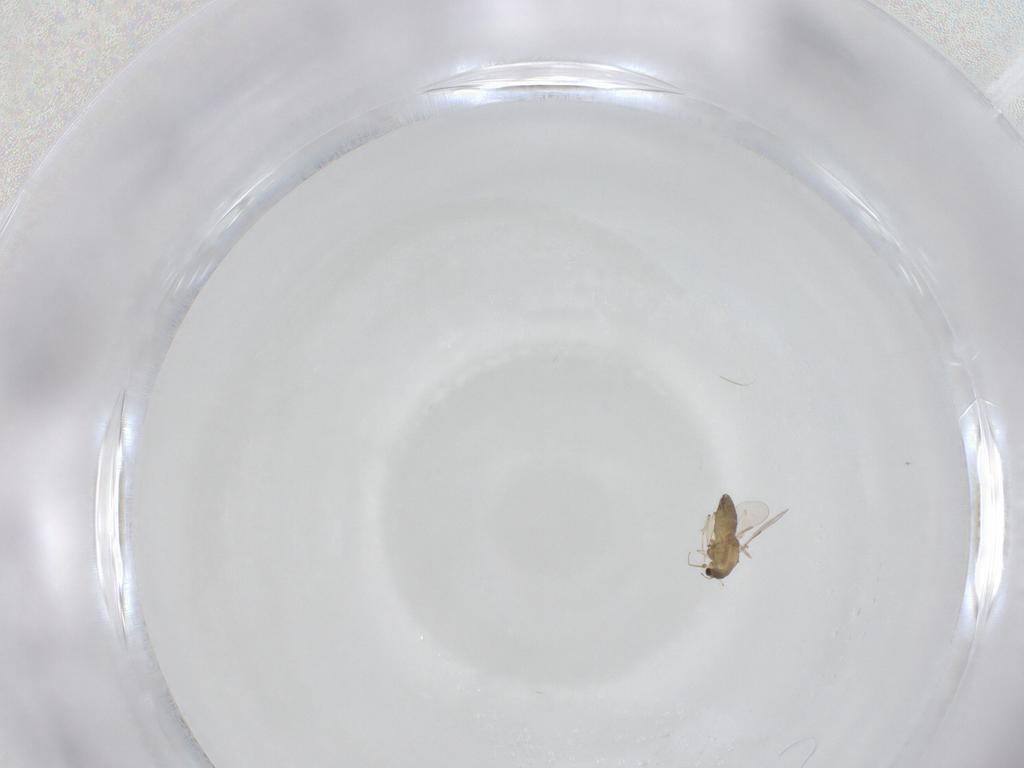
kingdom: Animalia
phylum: Arthropoda
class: Insecta
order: Diptera
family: Chironomidae
